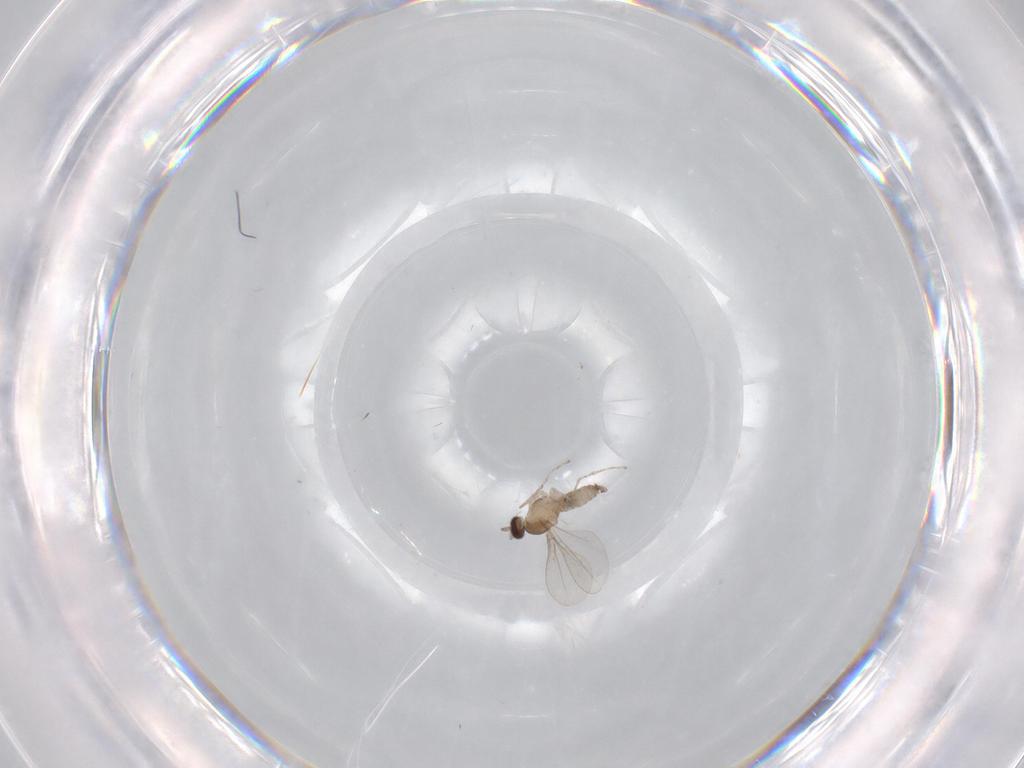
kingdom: Animalia
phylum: Arthropoda
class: Insecta
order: Diptera
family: Cecidomyiidae
